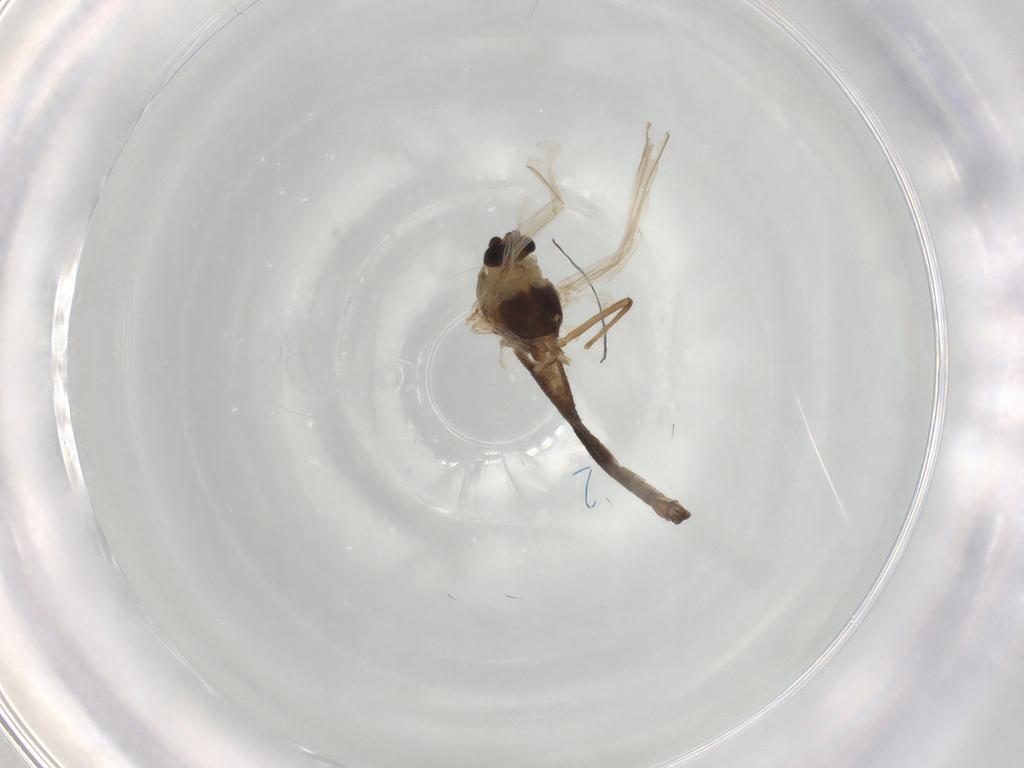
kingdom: Animalia
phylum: Arthropoda
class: Insecta
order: Diptera
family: Chironomidae
